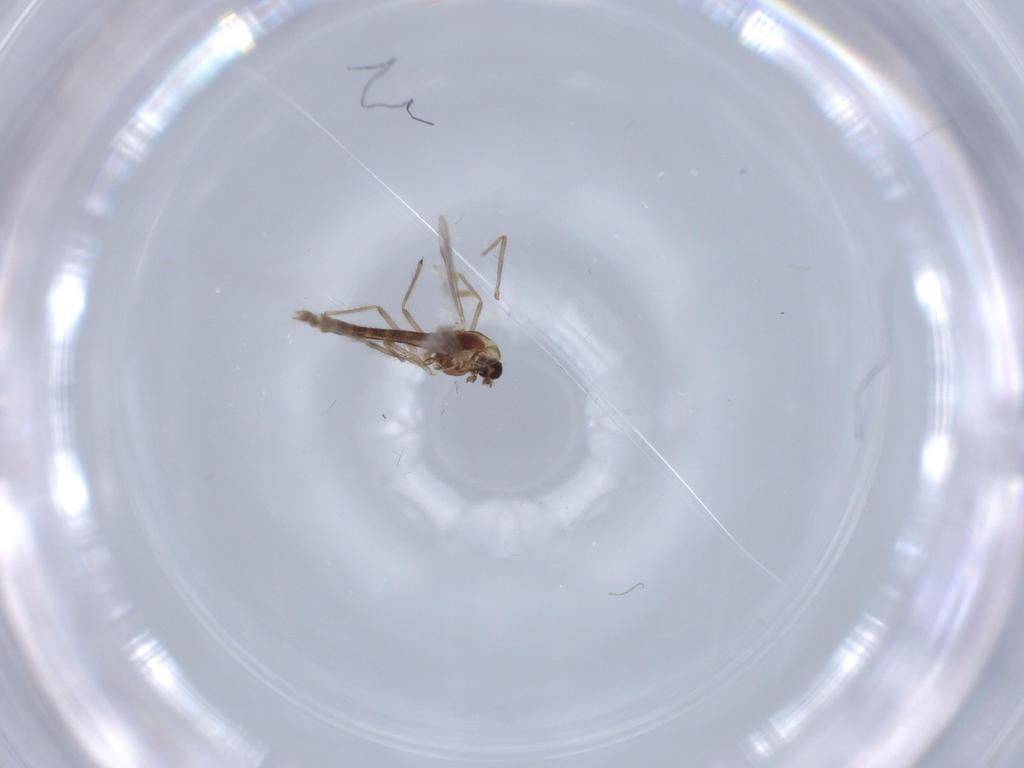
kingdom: Animalia
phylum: Arthropoda
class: Insecta
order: Diptera
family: Chironomidae
